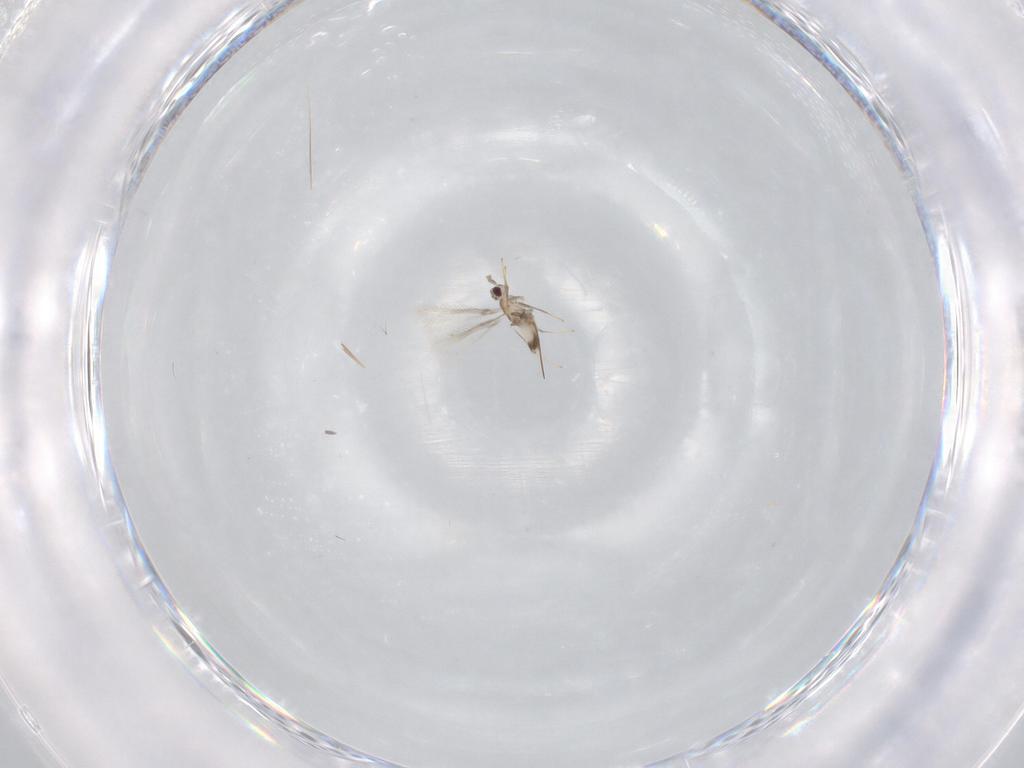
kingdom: Animalia
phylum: Arthropoda
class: Insecta
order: Hymenoptera
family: Mymaridae
